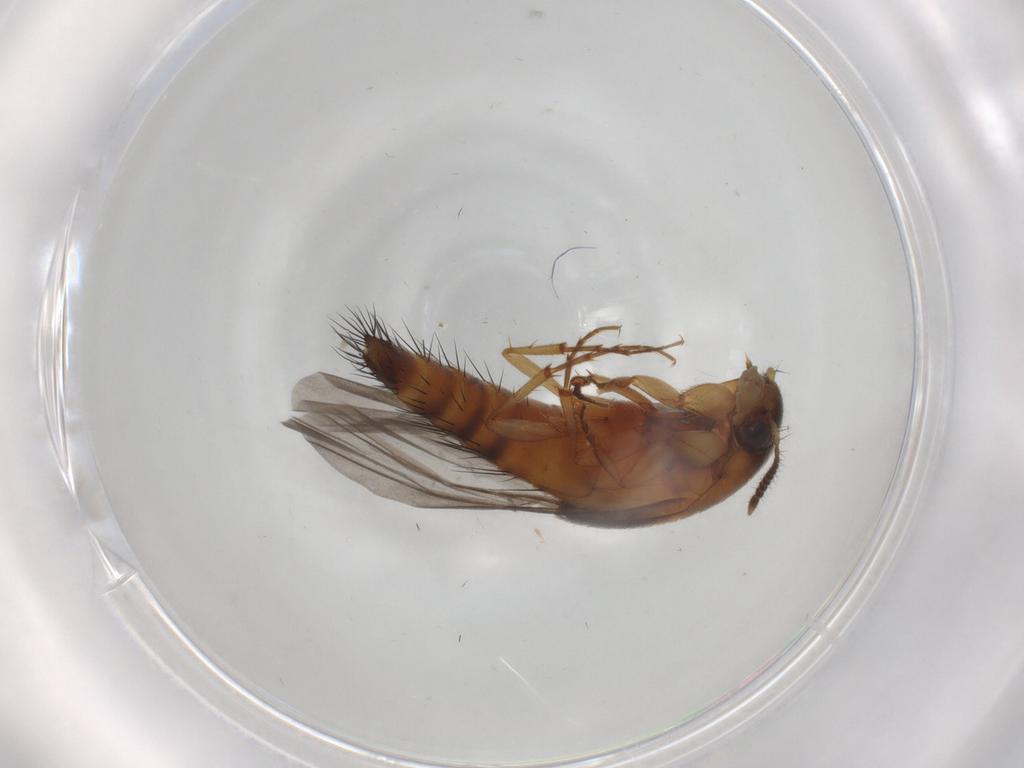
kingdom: Animalia
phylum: Arthropoda
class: Insecta
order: Coleoptera
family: Staphylinidae
